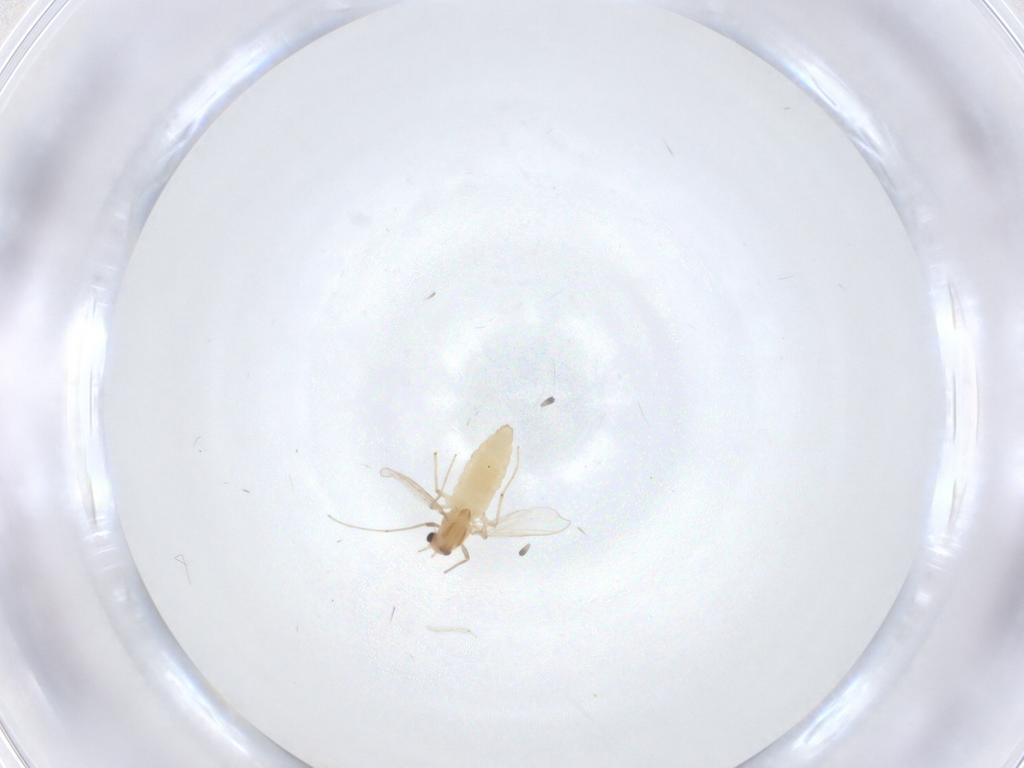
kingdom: Animalia
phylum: Arthropoda
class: Insecta
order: Diptera
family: Chironomidae
